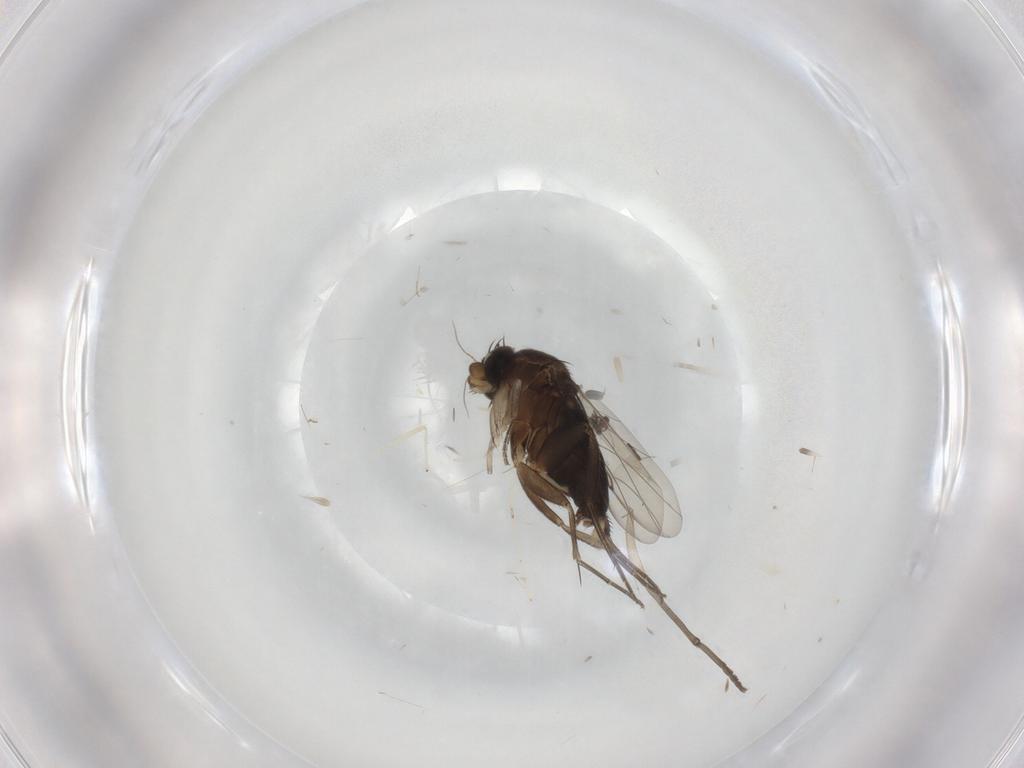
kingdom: Animalia
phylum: Arthropoda
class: Insecta
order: Diptera
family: Phoridae
